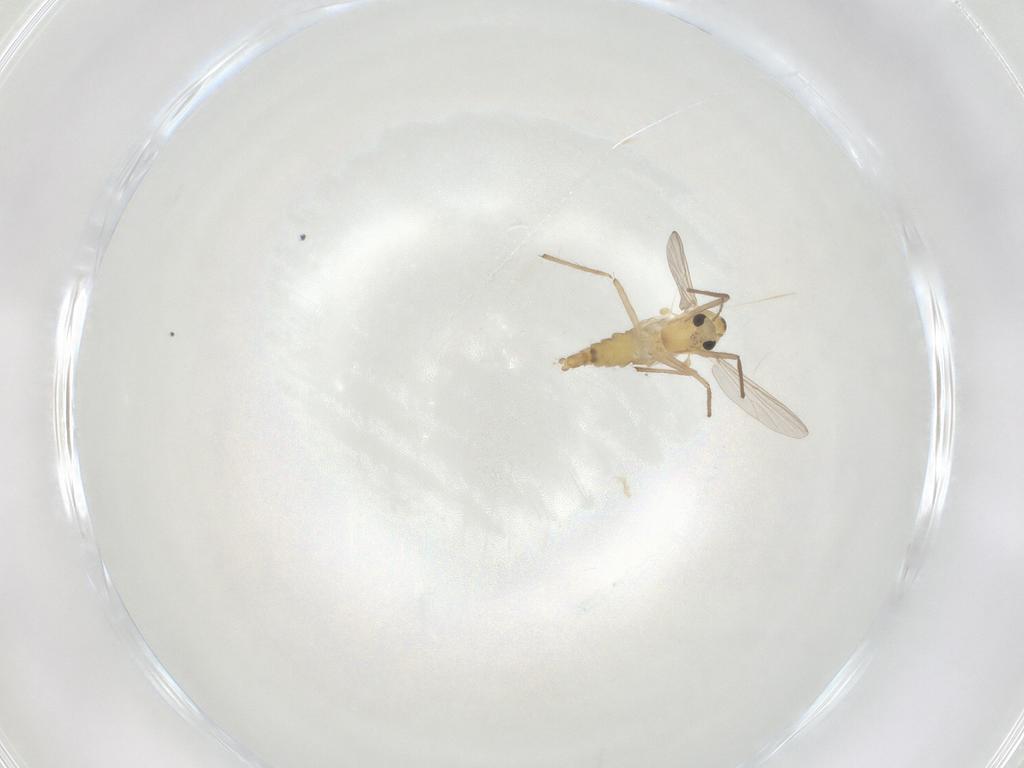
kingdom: Animalia
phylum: Arthropoda
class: Insecta
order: Diptera
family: Chironomidae
